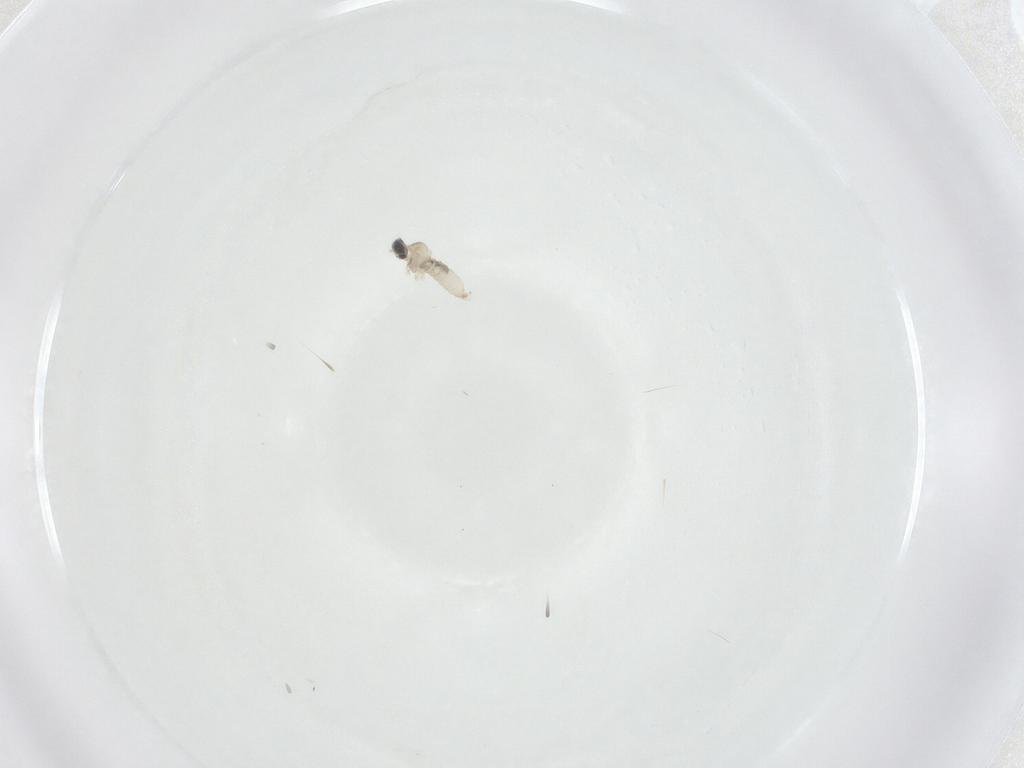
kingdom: Animalia
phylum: Arthropoda
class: Insecta
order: Diptera
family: Cecidomyiidae
